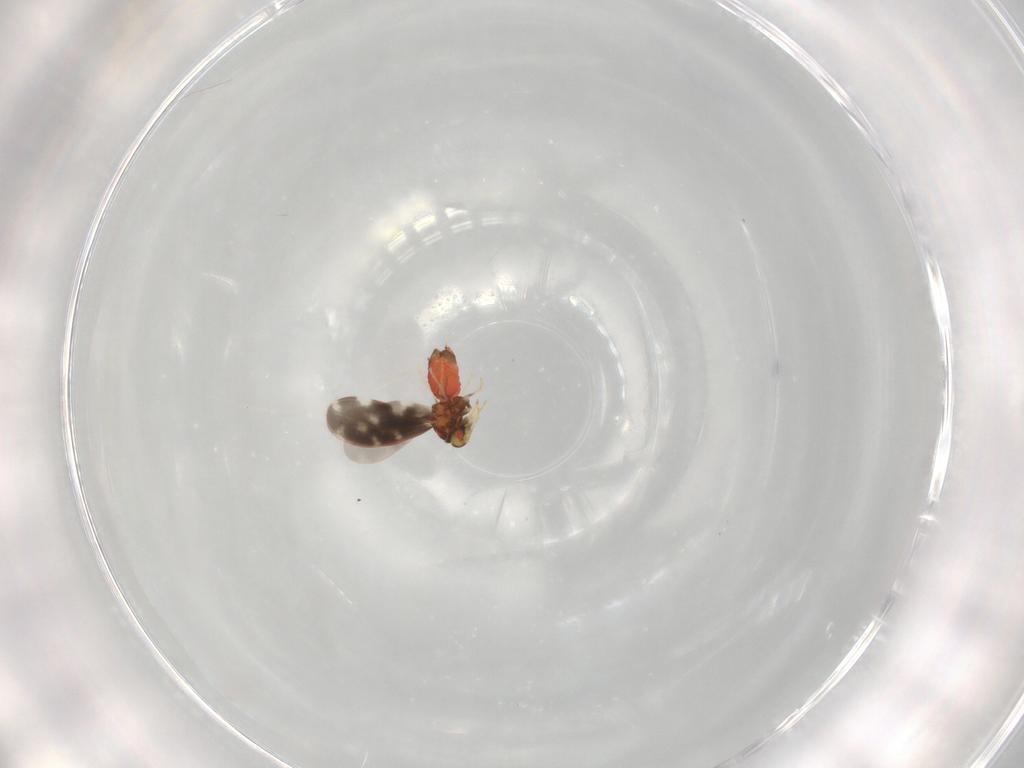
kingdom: Animalia
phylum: Arthropoda
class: Insecta
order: Hemiptera
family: Aleyrodidae
